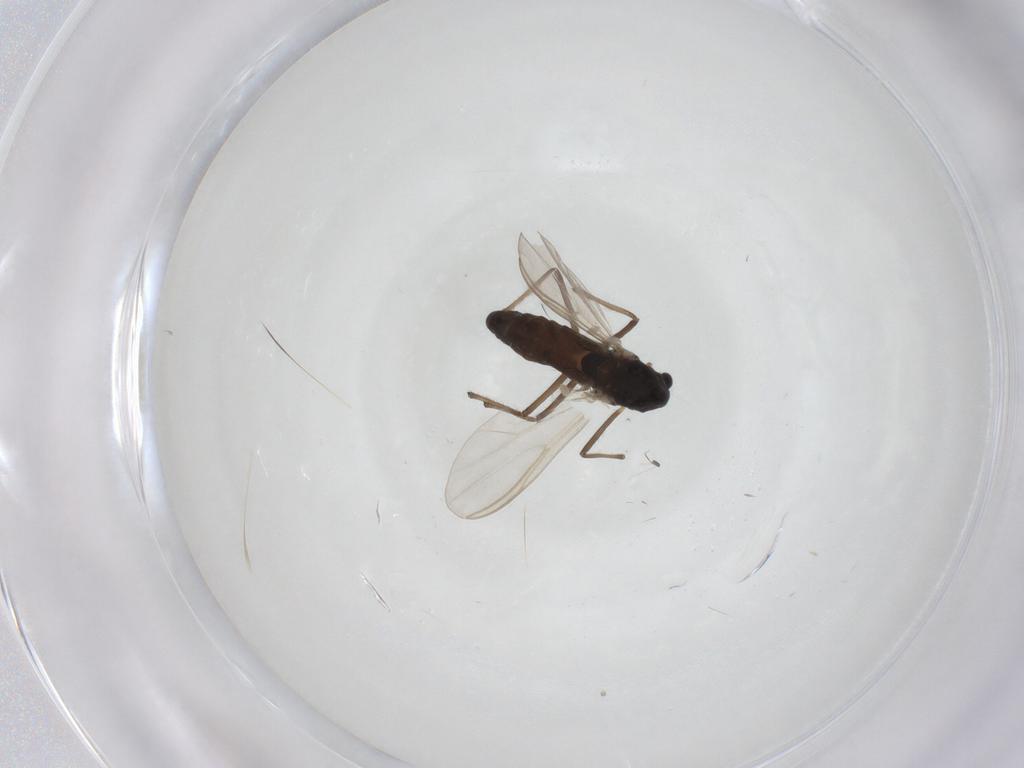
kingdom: Animalia
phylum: Arthropoda
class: Insecta
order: Diptera
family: Chironomidae
